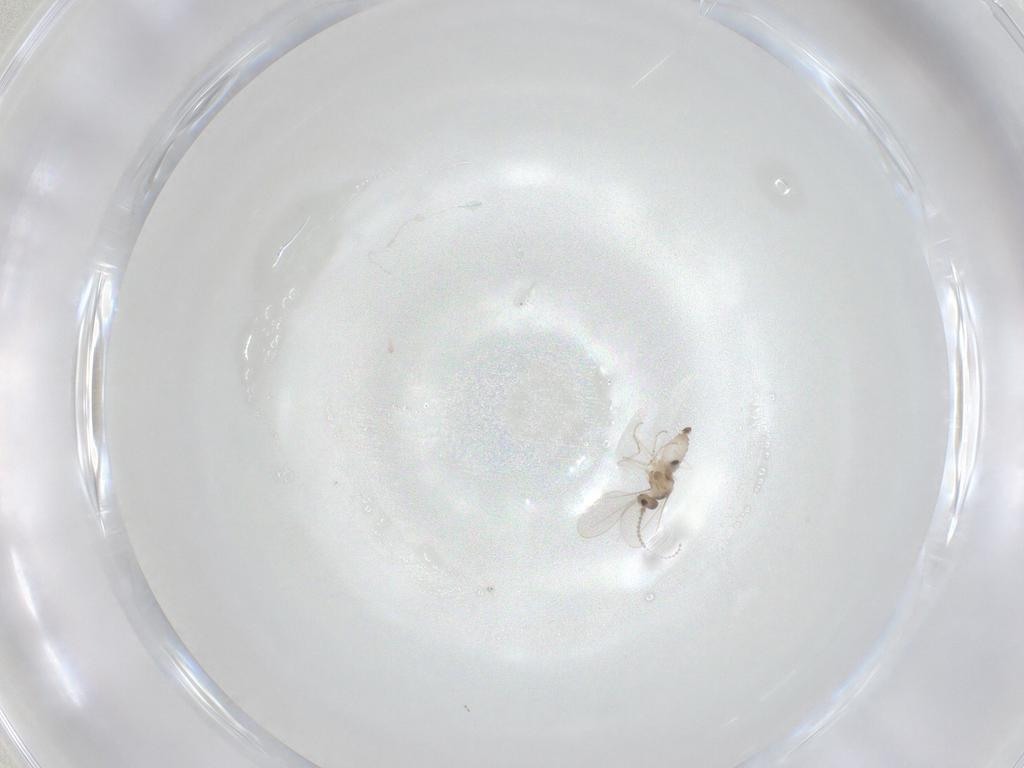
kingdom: Animalia
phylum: Arthropoda
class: Insecta
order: Diptera
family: Cecidomyiidae
